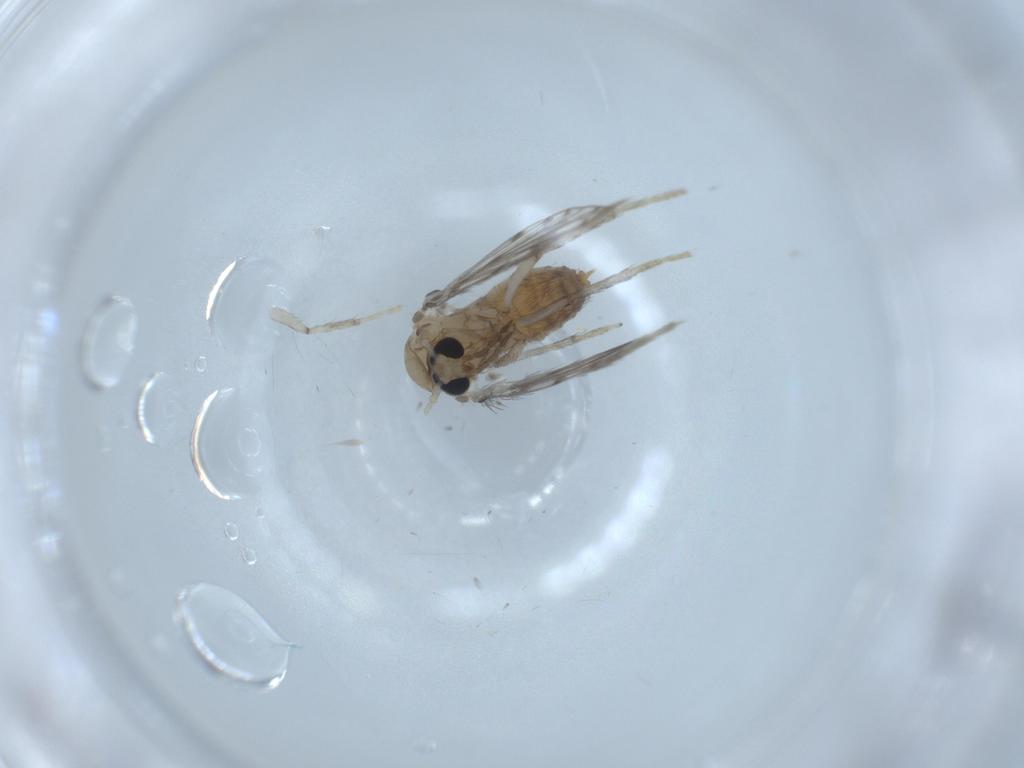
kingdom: Animalia
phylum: Arthropoda
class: Insecta
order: Diptera
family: Psychodidae
